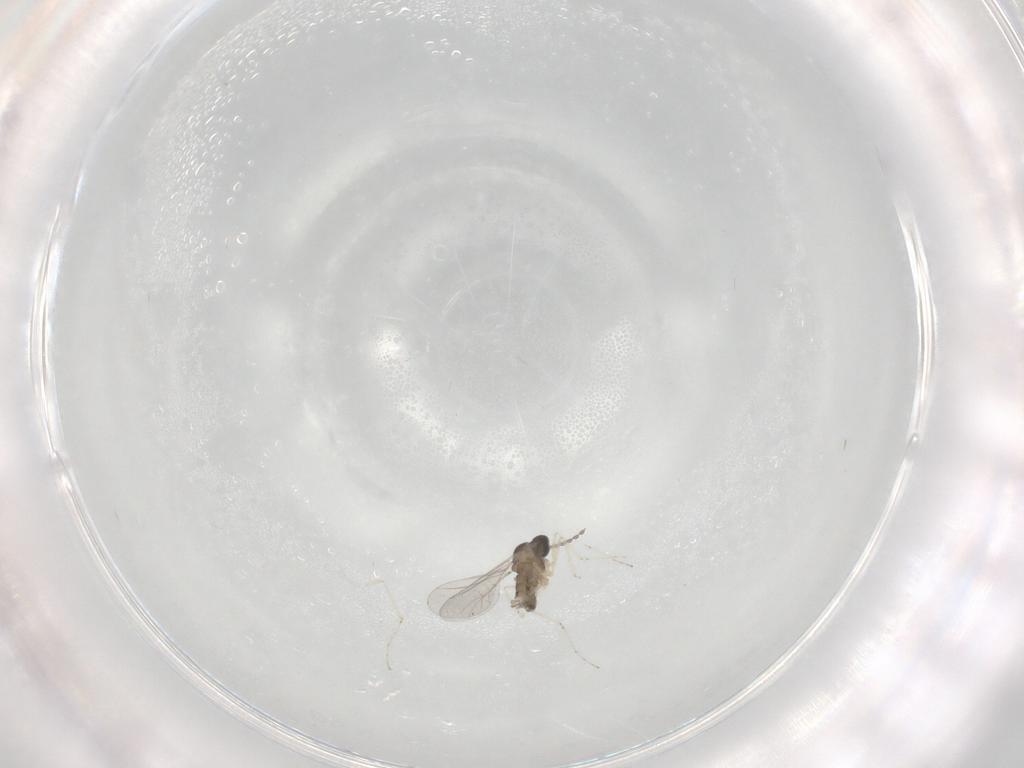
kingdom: Animalia
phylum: Arthropoda
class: Insecta
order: Diptera
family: Cecidomyiidae
